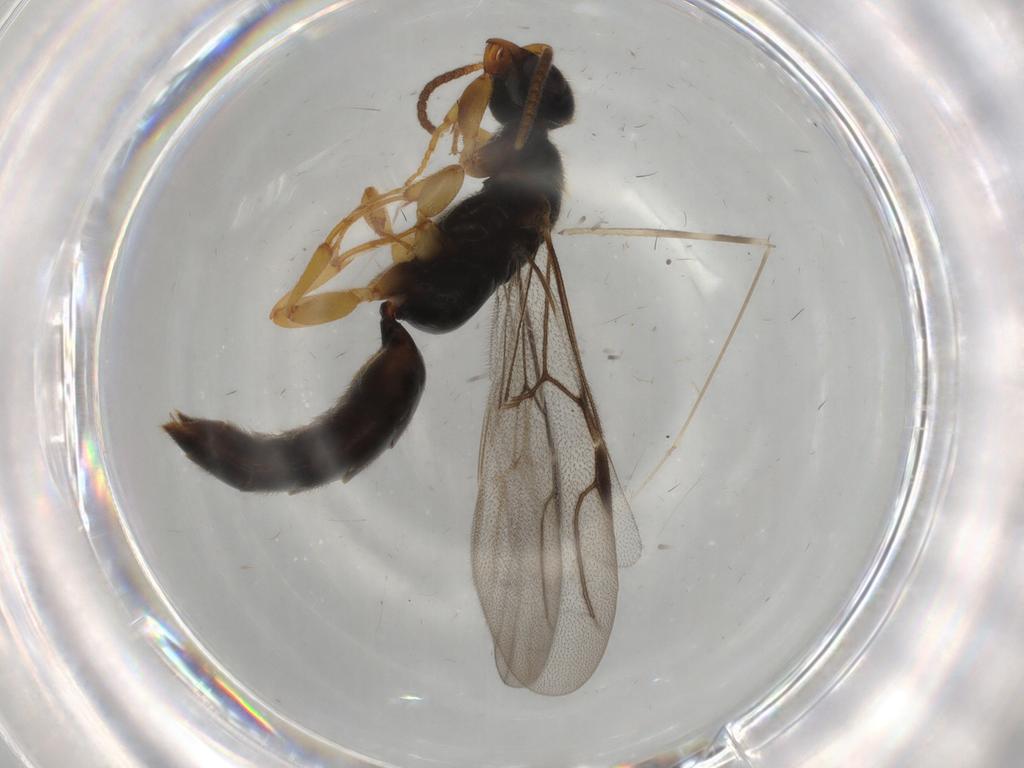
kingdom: Animalia
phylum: Arthropoda
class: Insecta
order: Hymenoptera
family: Bethylidae
